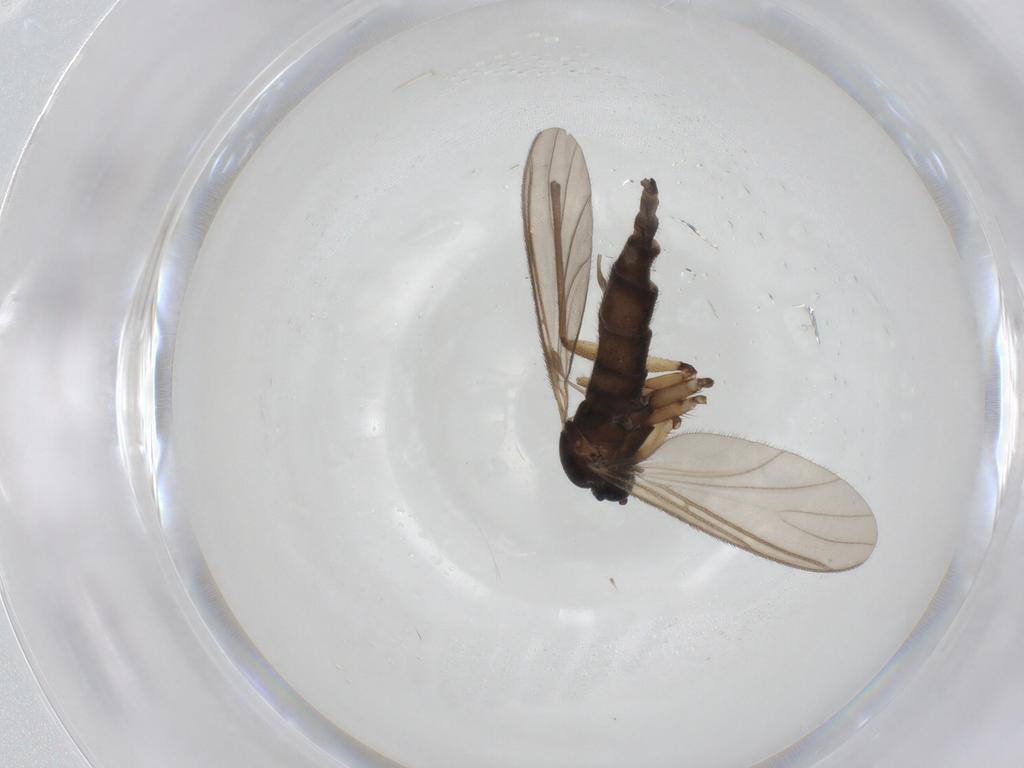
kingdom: Animalia
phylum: Arthropoda
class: Insecta
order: Diptera
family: Sciaridae
